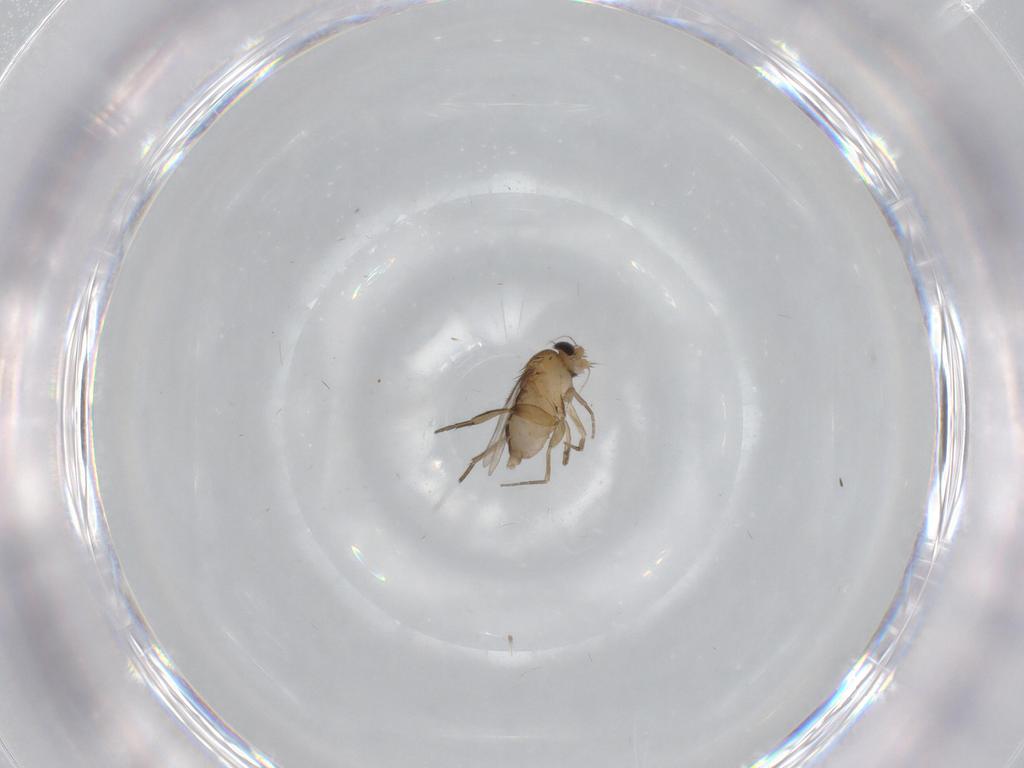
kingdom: Animalia
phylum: Arthropoda
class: Insecta
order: Diptera
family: Cecidomyiidae
